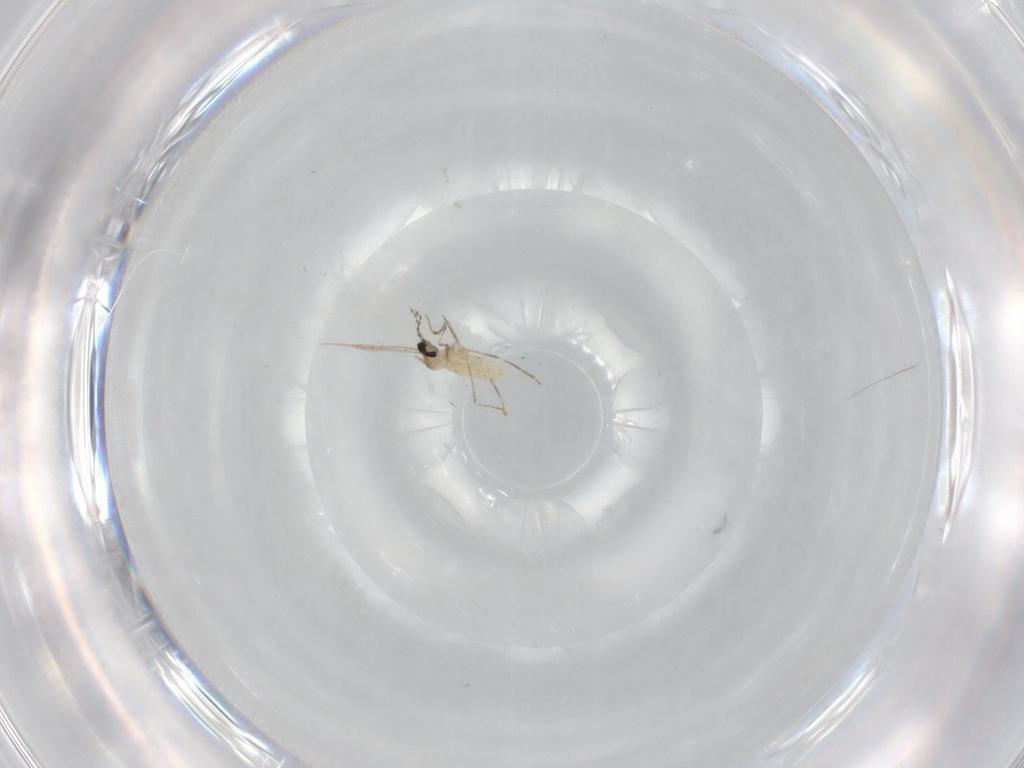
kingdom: Animalia
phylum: Arthropoda
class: Insecta
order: Diptera
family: Cecidomyiidae
